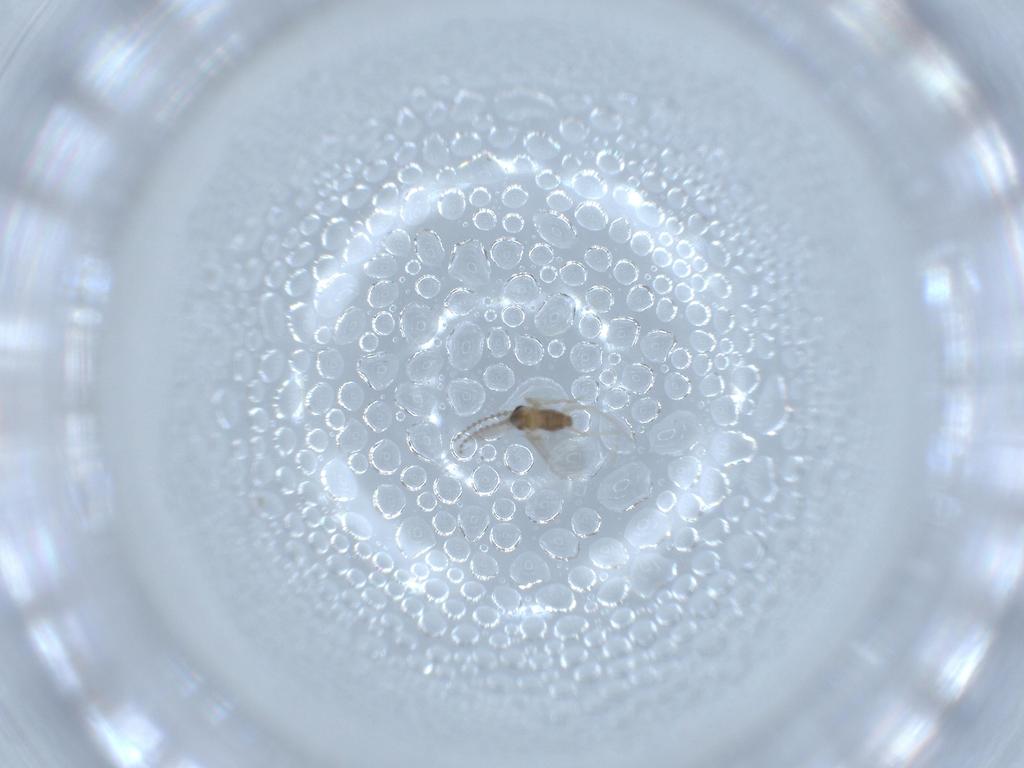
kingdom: Animalia
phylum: Arthropoda
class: Insecta
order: Diptera
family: Cecidomyiidae
